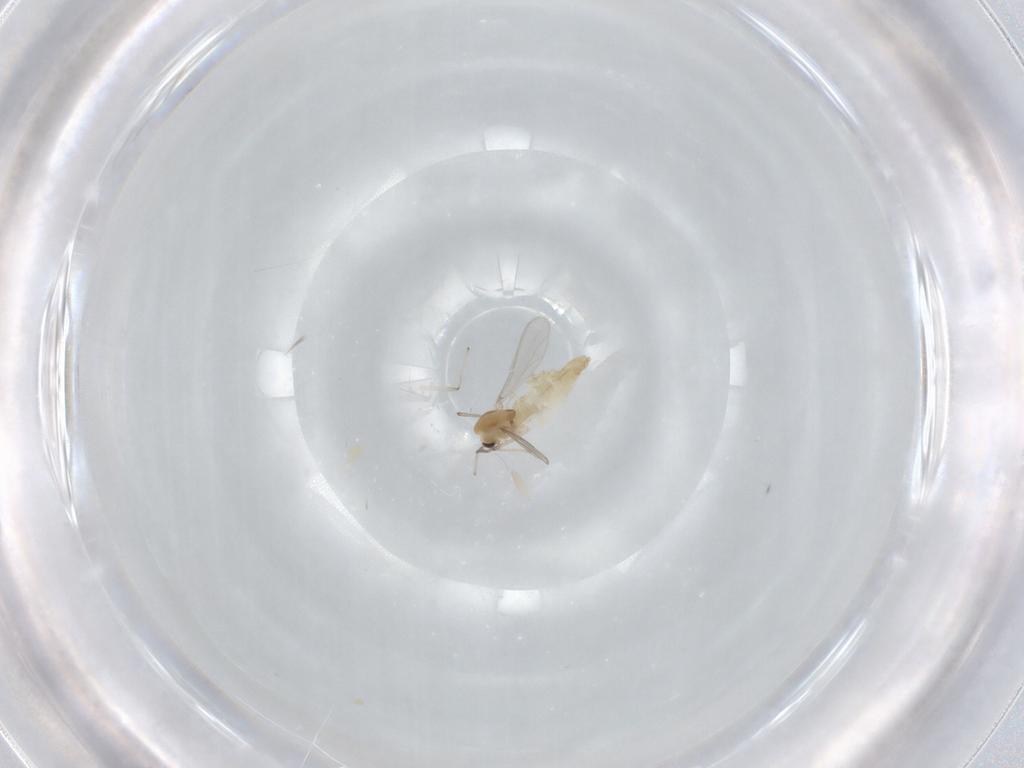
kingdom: Animalia
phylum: Arthropoda
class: Insecta
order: Diptera
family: Chironomidae
